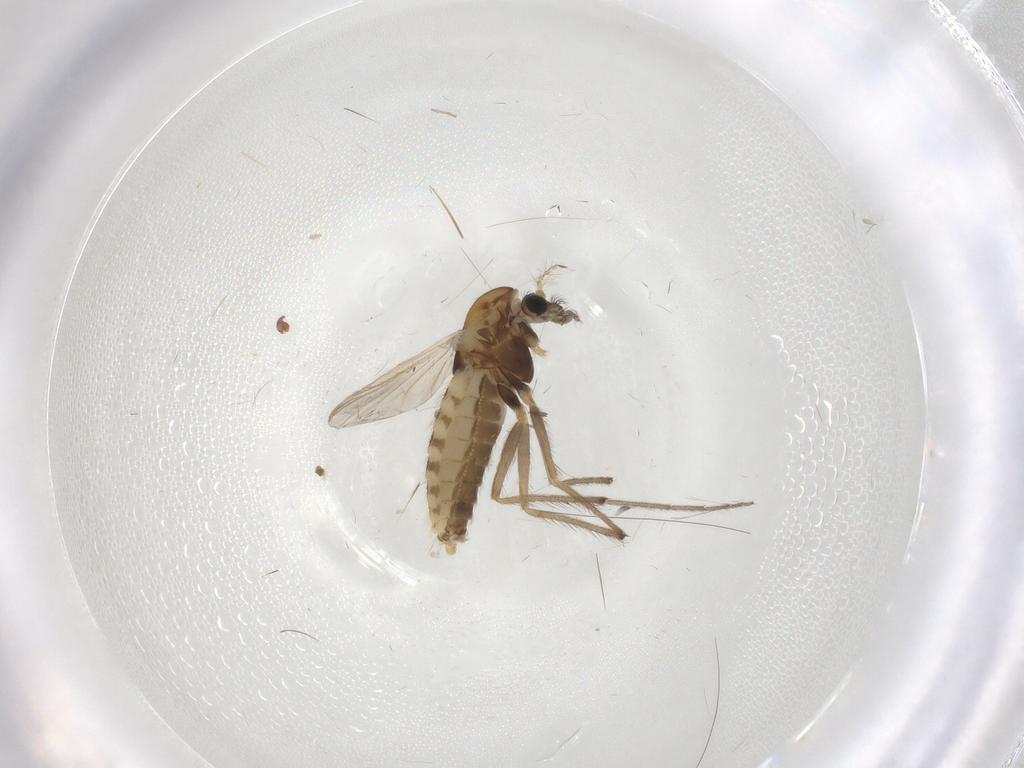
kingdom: Animalia
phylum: Arthropoda
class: Insecta
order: Diptera
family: Chironomidae
